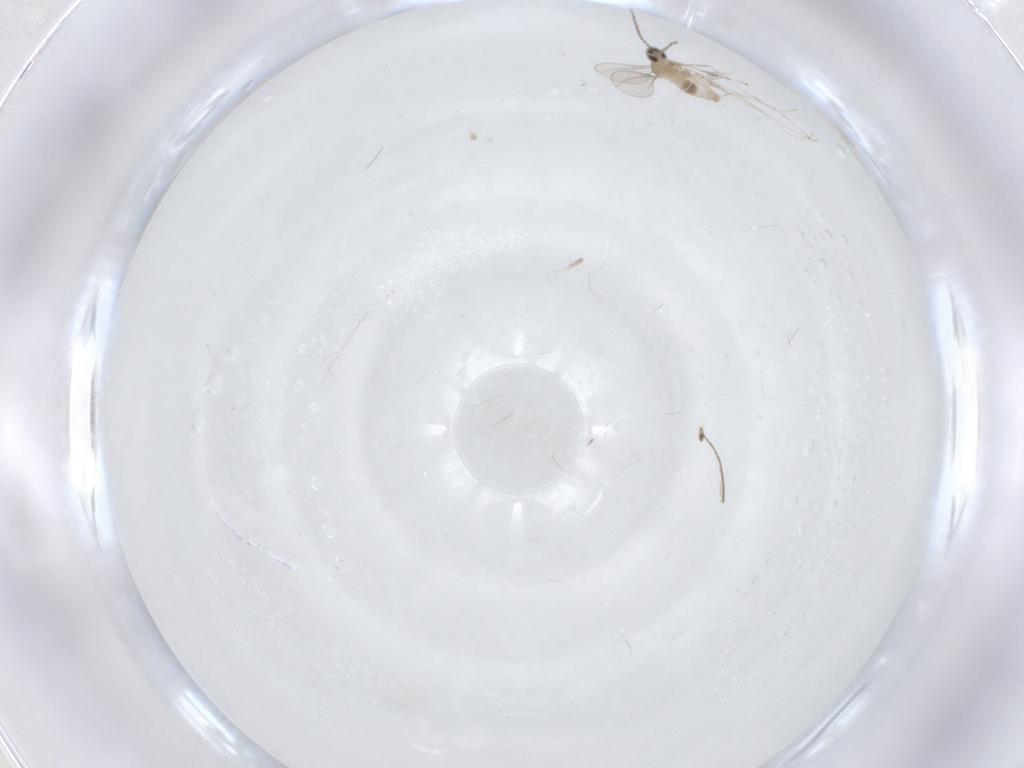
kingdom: Animalia
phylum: Arthropoda
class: Insecta
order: Diptera
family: Cecidomyiidae
